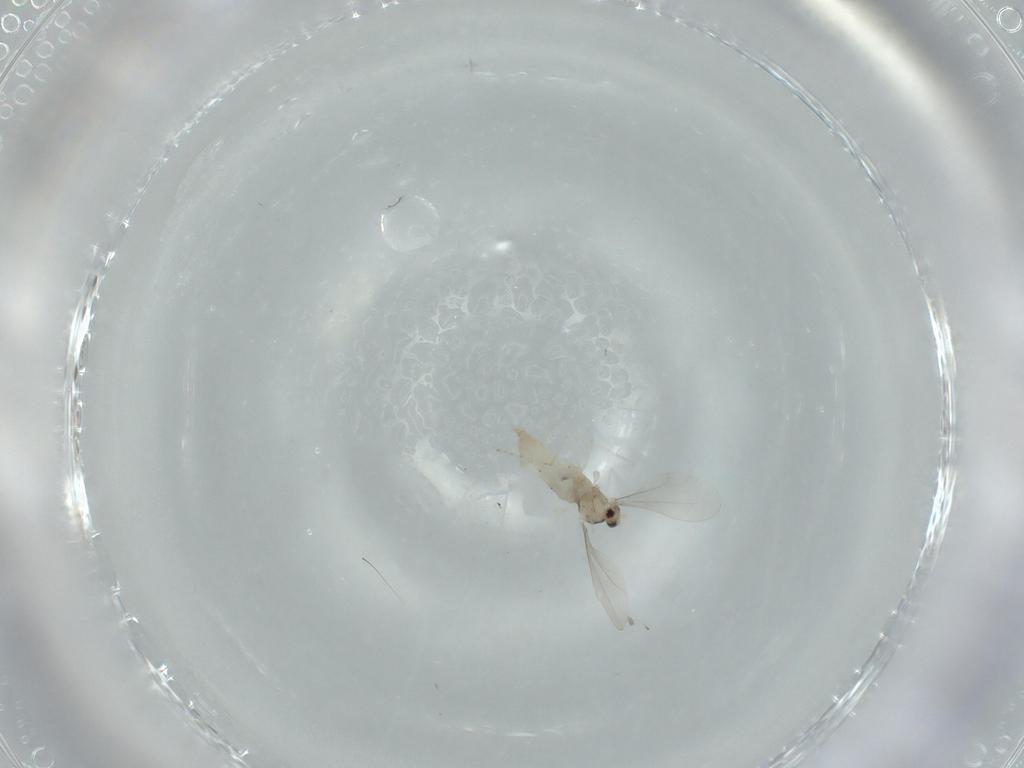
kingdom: Animalia
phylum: Arthropoda
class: Insecta
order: Diptera
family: Cecidomyiidae
